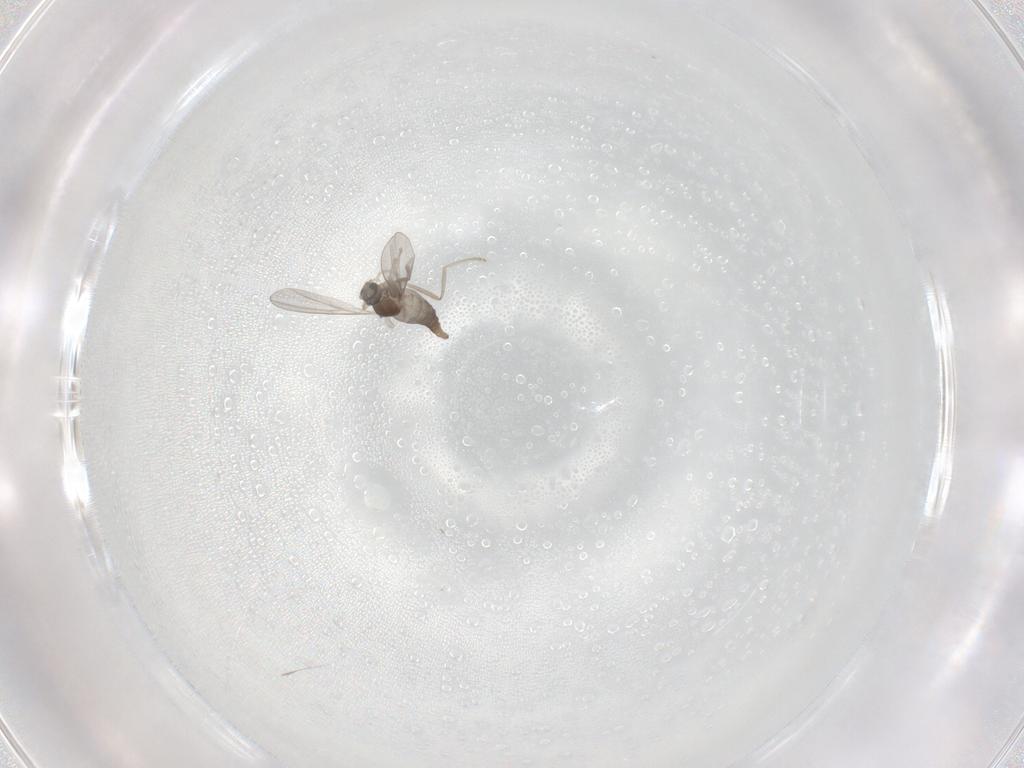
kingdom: Animalia
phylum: Arthropoda
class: Insecta
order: Diptera
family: Cecidomyiidae
